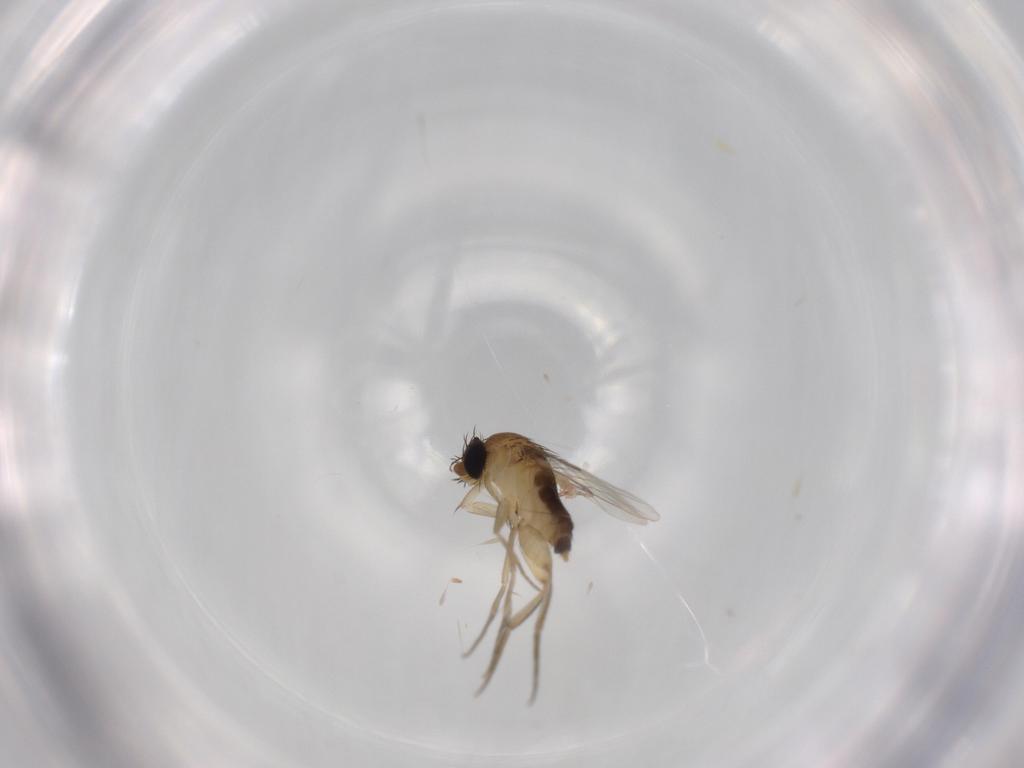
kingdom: Animalia
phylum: Arthropoda
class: Insecta
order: Diptera
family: Phoridae
